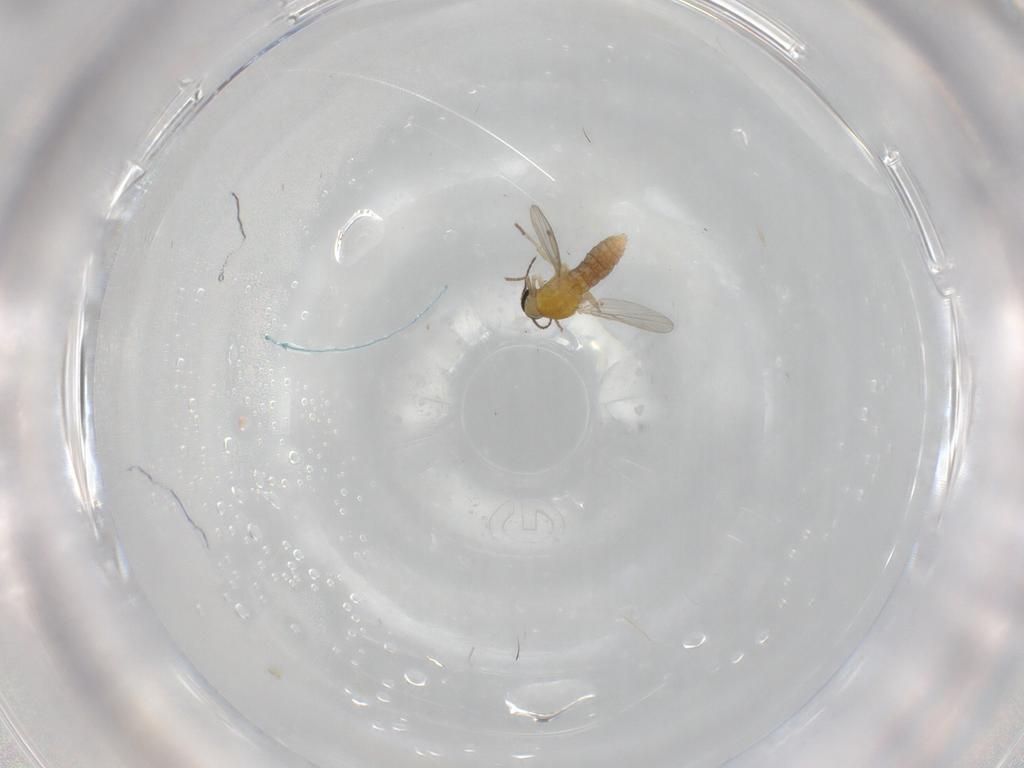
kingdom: Animalia
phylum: Arthropoda
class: Insecta
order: Diptera
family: Ceratopogonidae
